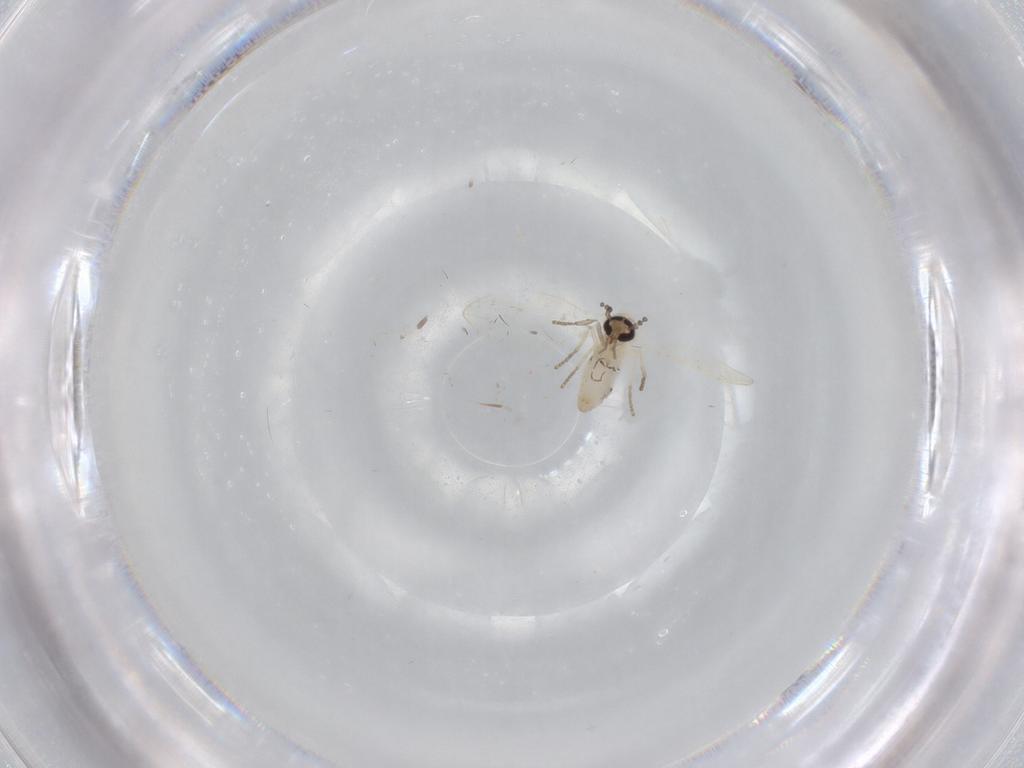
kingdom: Animalia
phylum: Arthropoda
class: Insecta
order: Diptera
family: Psychodidae
